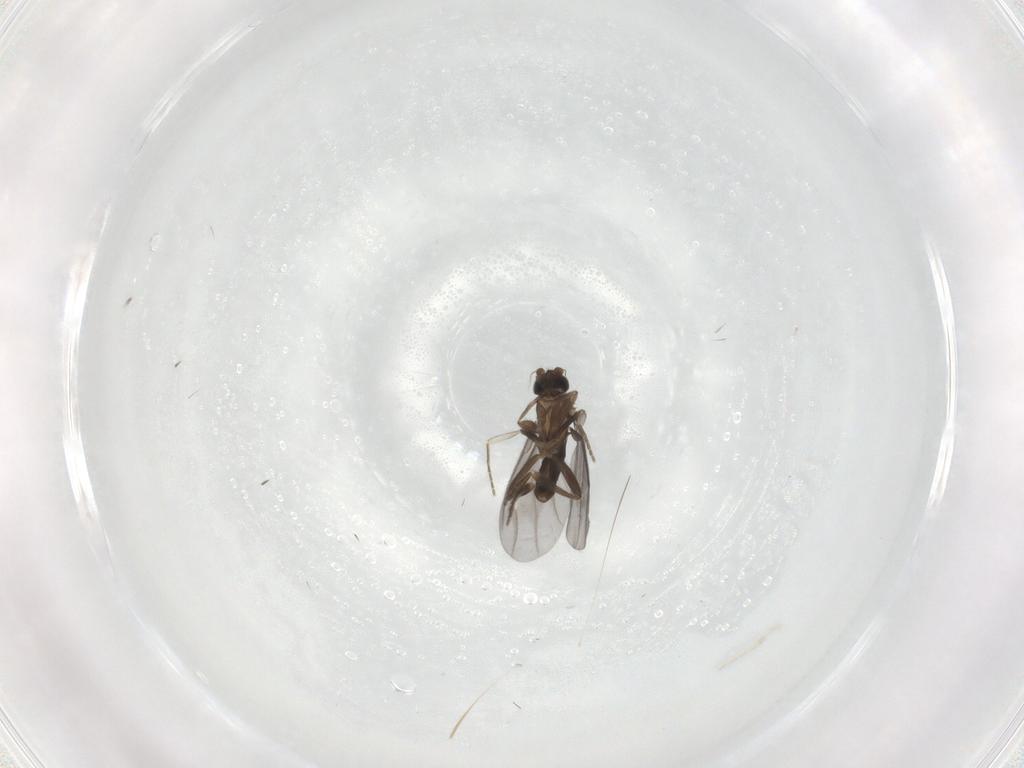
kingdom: Animalia
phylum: Arthropoda
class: Insecta
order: Diptera
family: Phoridae
